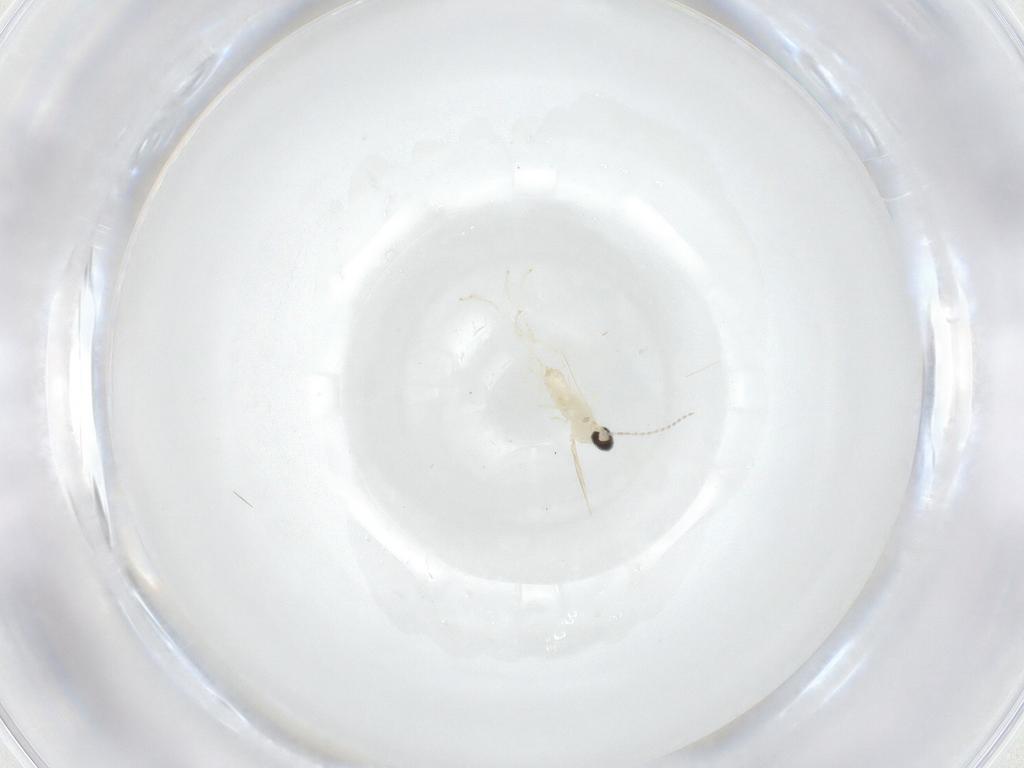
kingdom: Animalia
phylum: Arthropoda
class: Insecta
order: Diptera
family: Cecidomyiidae
